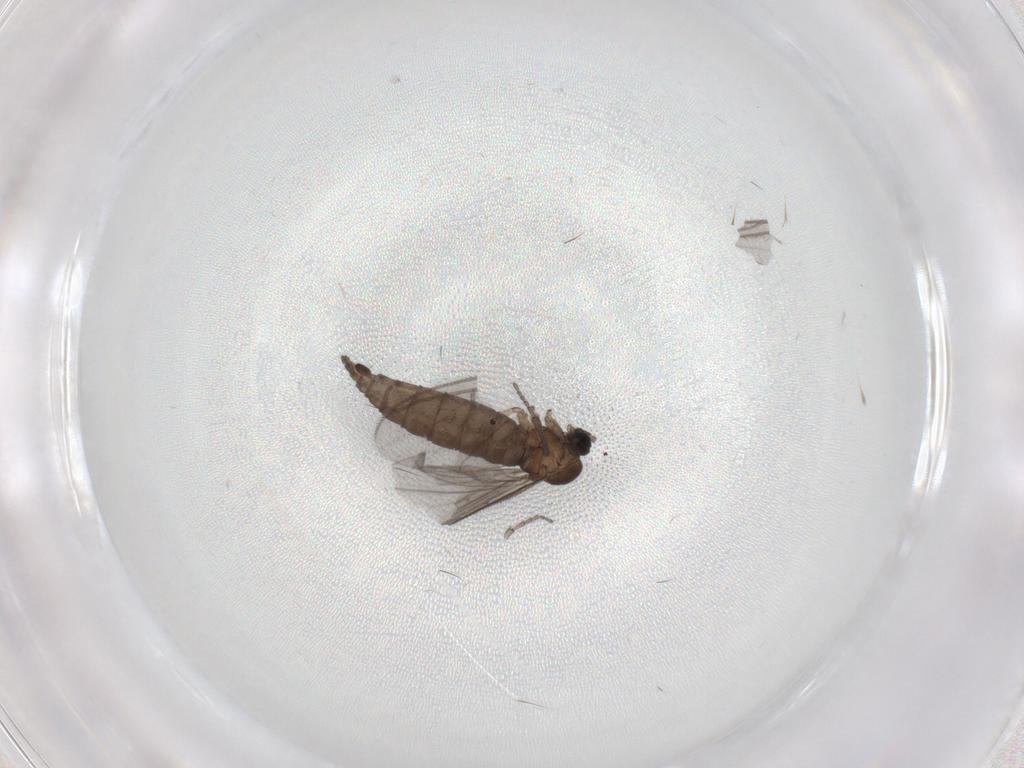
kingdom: Animalia
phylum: Arthropoda
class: Insecta
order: Diptera
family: Sciaridae
